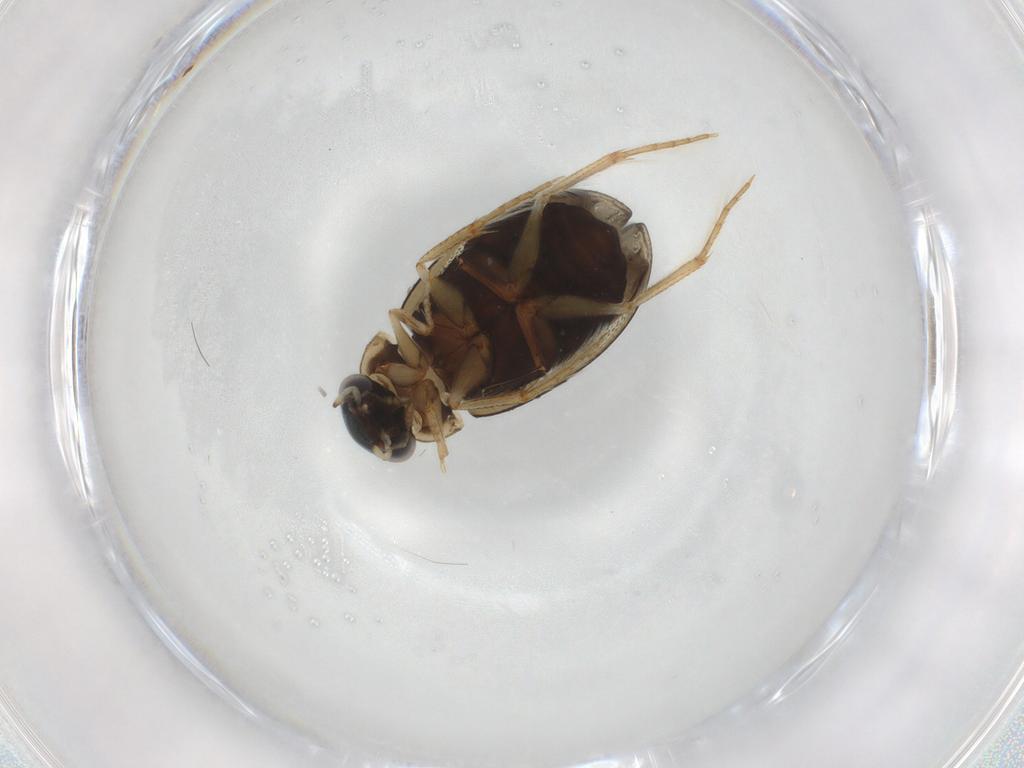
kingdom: Animalia
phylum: Arthropoda
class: Insecta
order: Coleoptera
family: Hydrophilidae
